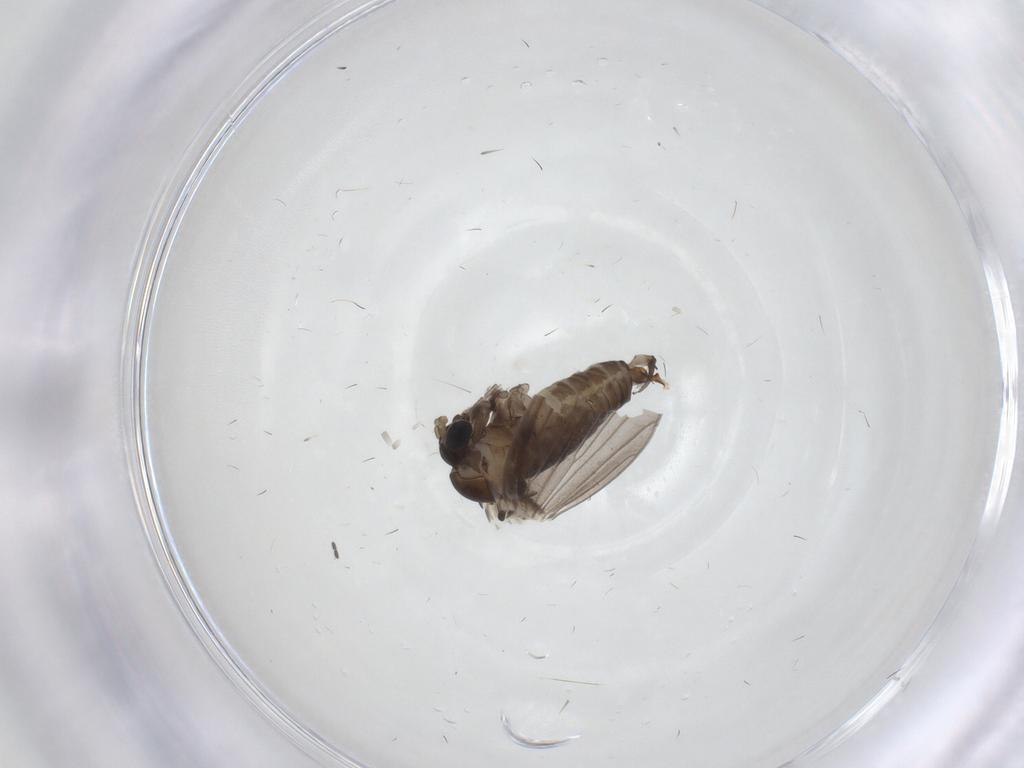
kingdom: Animalia
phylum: Arthropoda
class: Insecta
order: Diptera
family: Psychodidae
